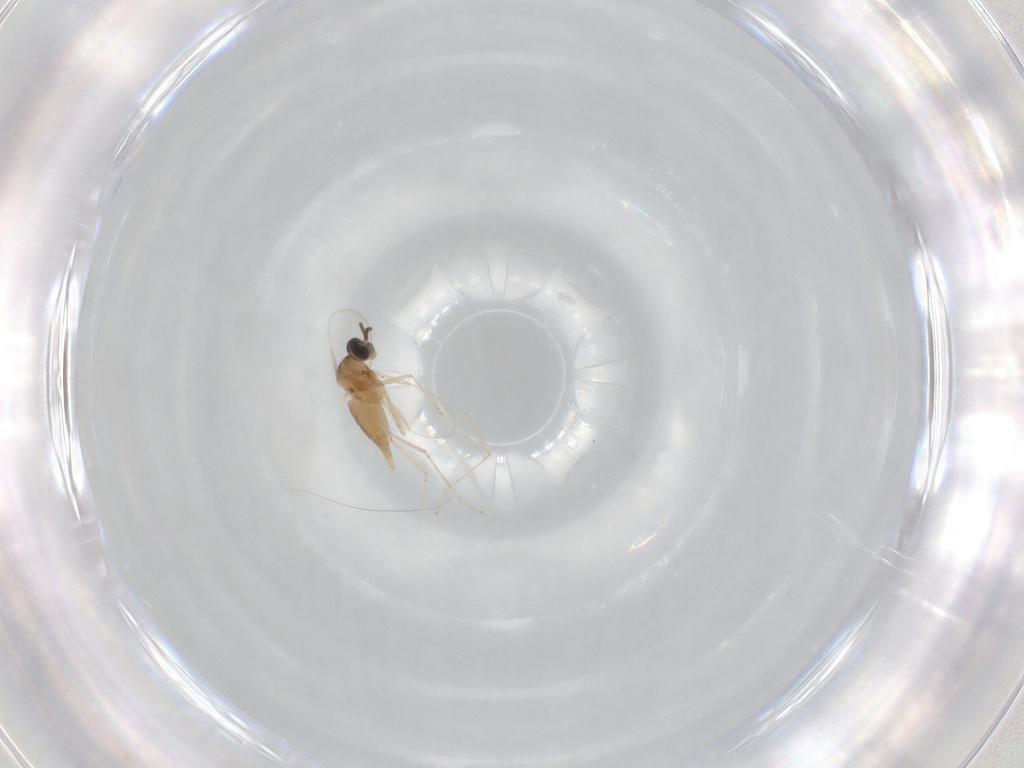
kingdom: Animalia
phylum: Arthropoda
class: Insecta
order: Diptera
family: Cecidomyiidae
